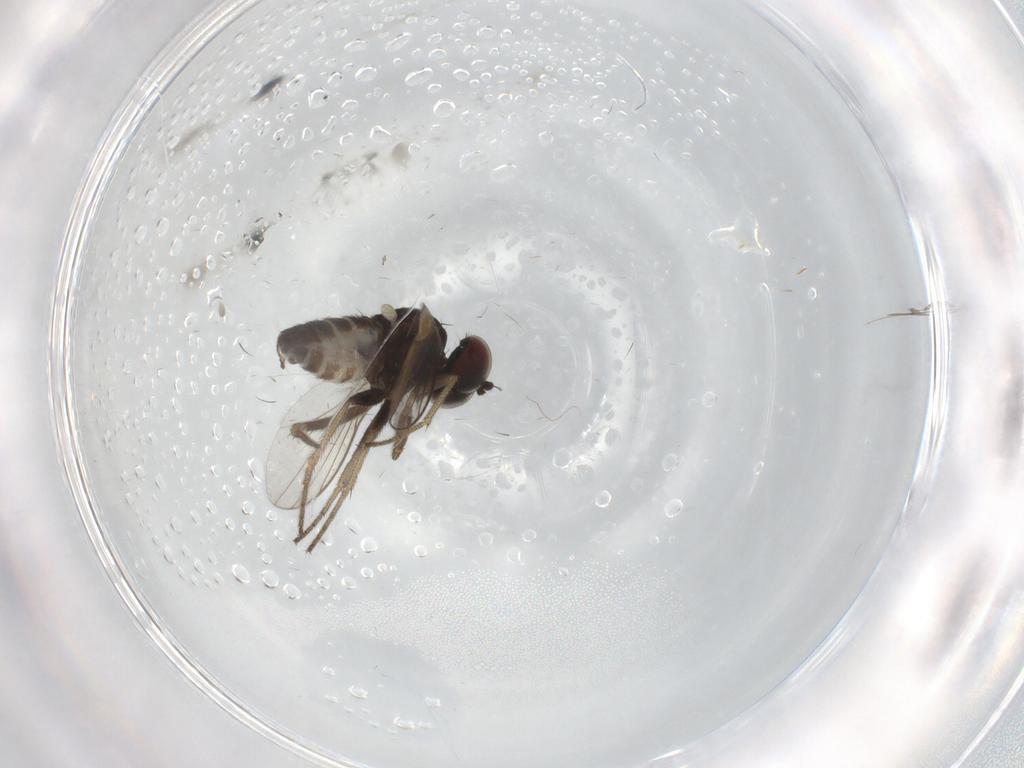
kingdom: Animalia
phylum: Arthropoda
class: Insecta
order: Diptera
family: Dolichopodidae
